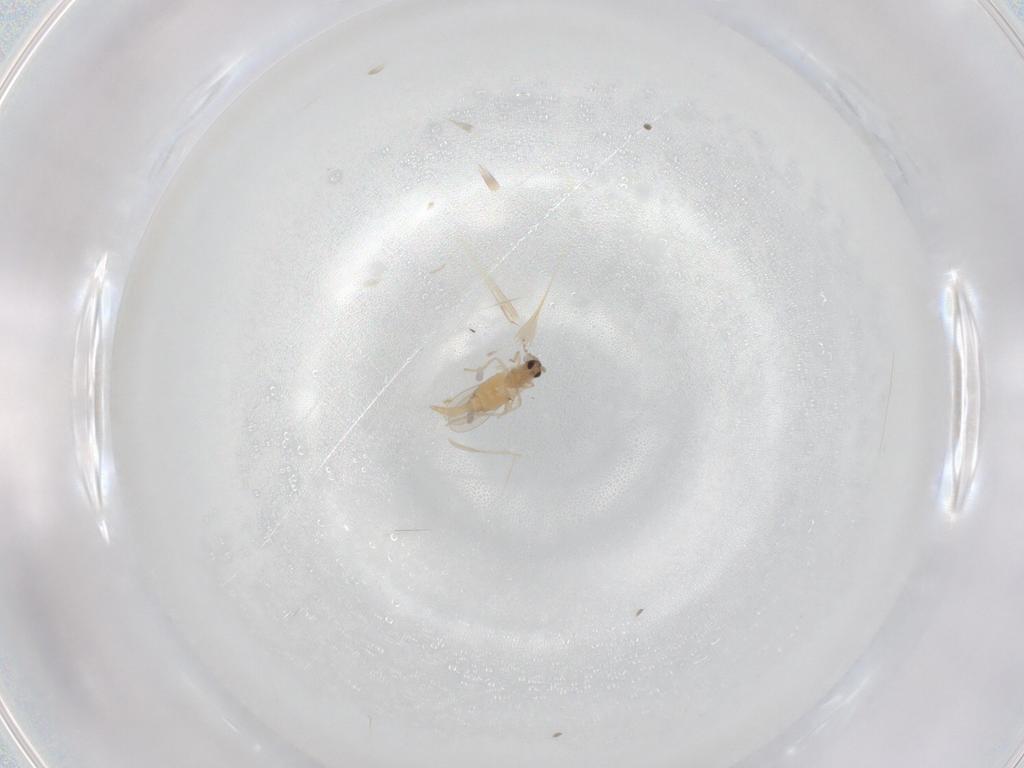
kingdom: Animalia
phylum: Arthropoda
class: Insecta
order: Diptera
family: Cecidomyiidae
